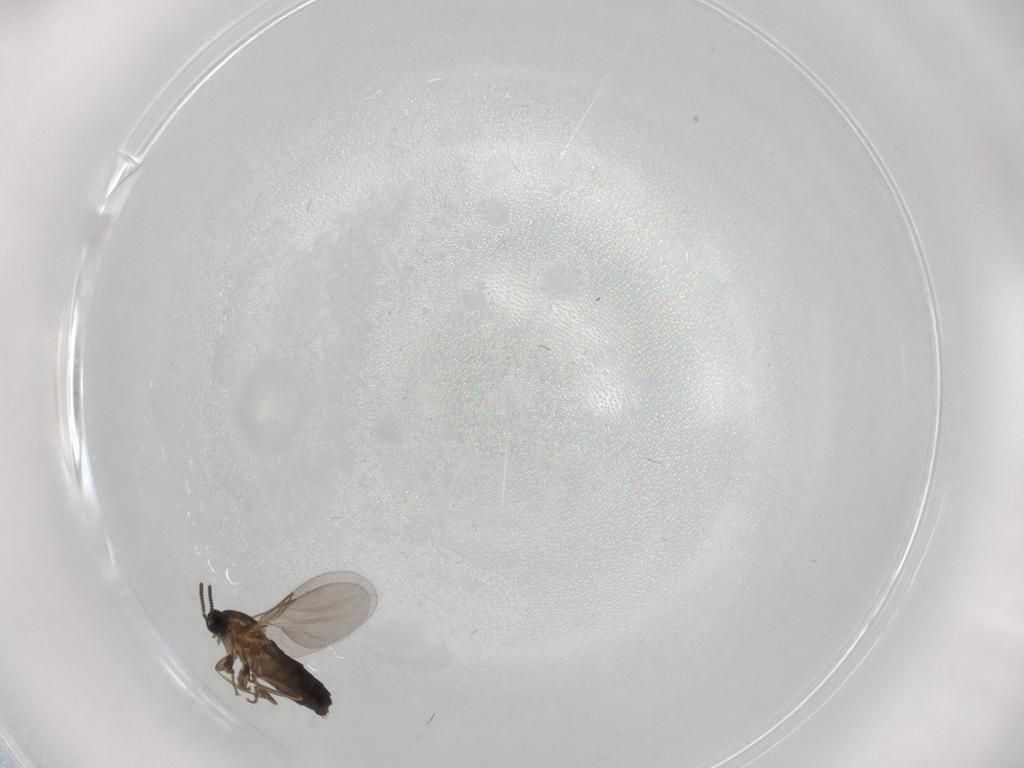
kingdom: Animalia
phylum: Arthropoda
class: Insecta
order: Diptera
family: Scatopsidae
